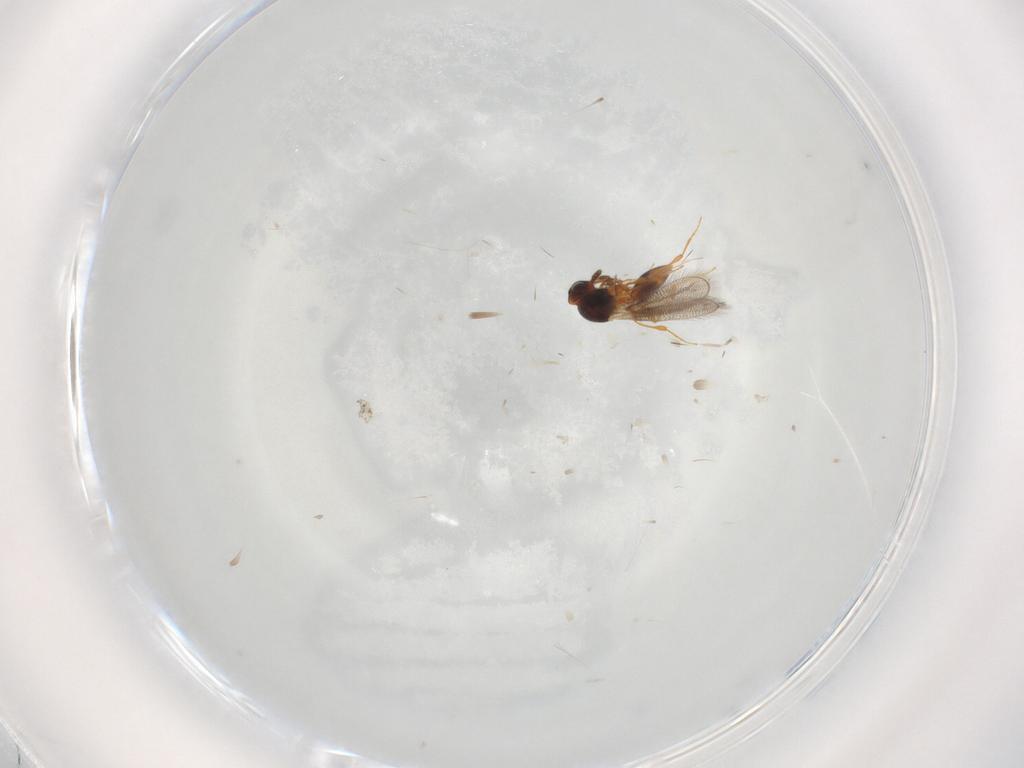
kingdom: Animalia
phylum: Arthropoda
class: Insecta
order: Hymenoptera
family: Platygastridae
